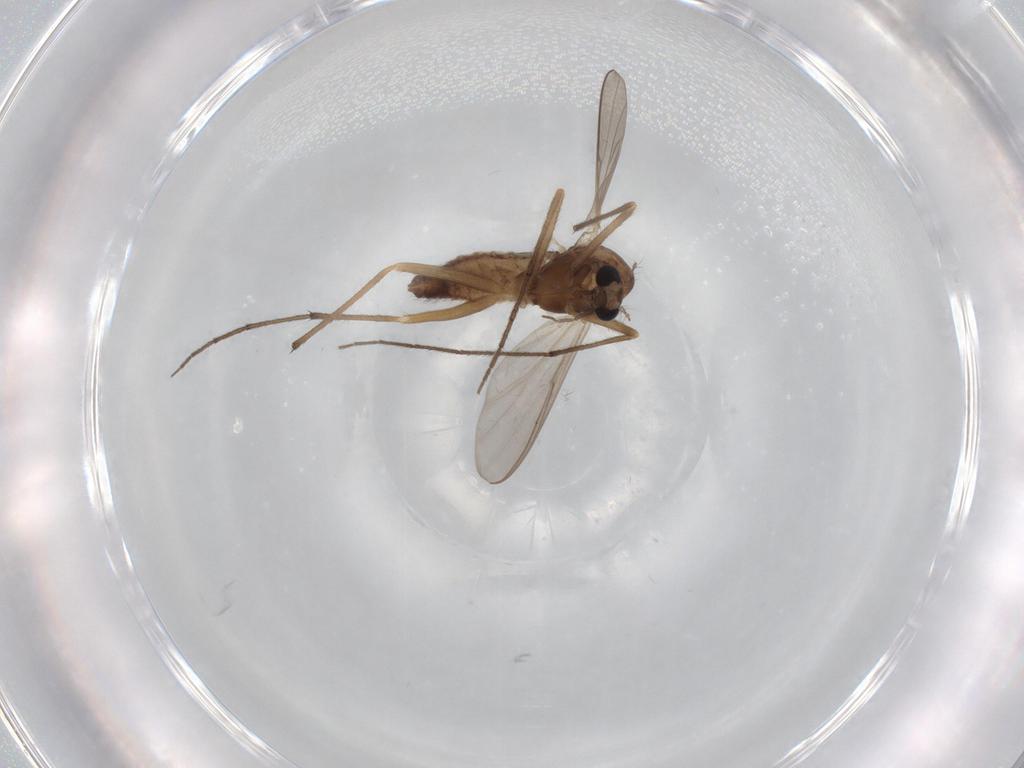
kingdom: Animalia
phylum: Arthropoda
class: Insecta
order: Diptera
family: Chironomidae
